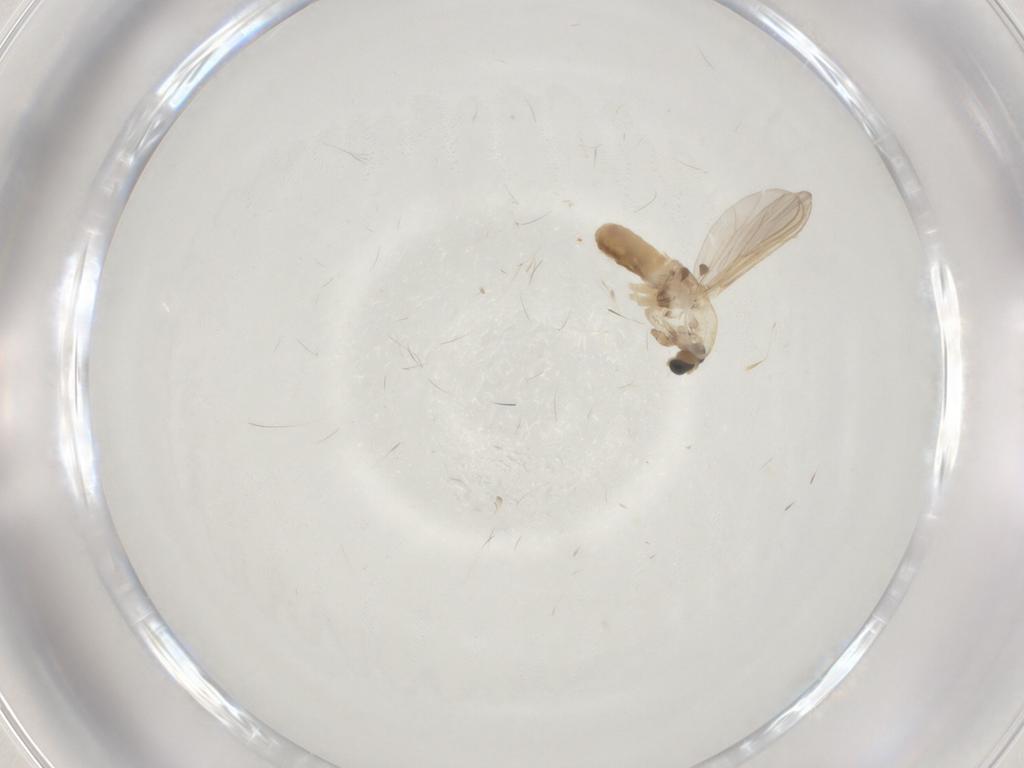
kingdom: Animalia
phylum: Arthropoda
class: Insecta
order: Diptera
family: Chironomidae
